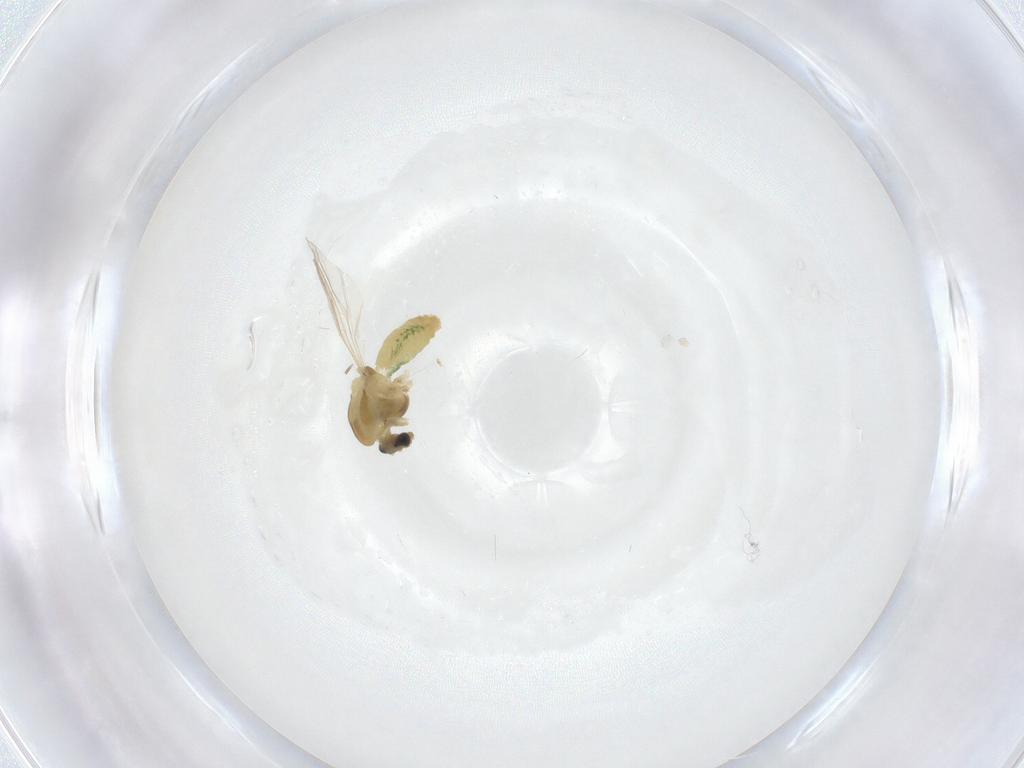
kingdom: Animalia
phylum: Arthropoda
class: Insecta
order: Diptera
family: Chironomidae
